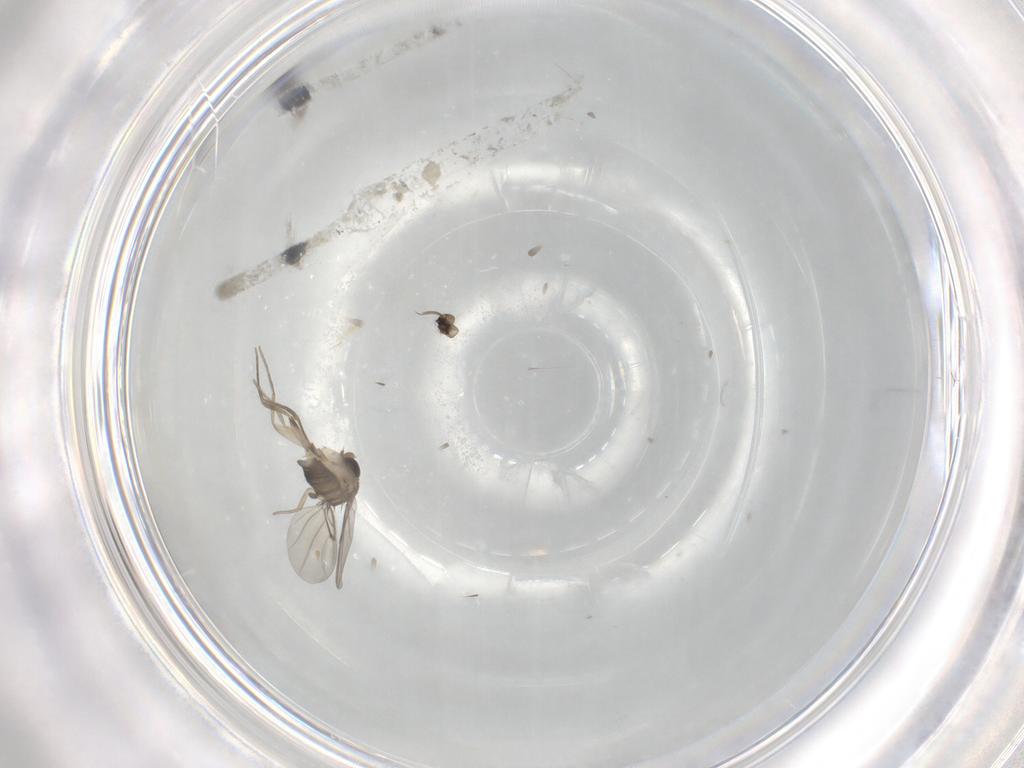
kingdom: Animalia
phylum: Arthropoda
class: Insecta
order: Diptera
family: Phoridae
